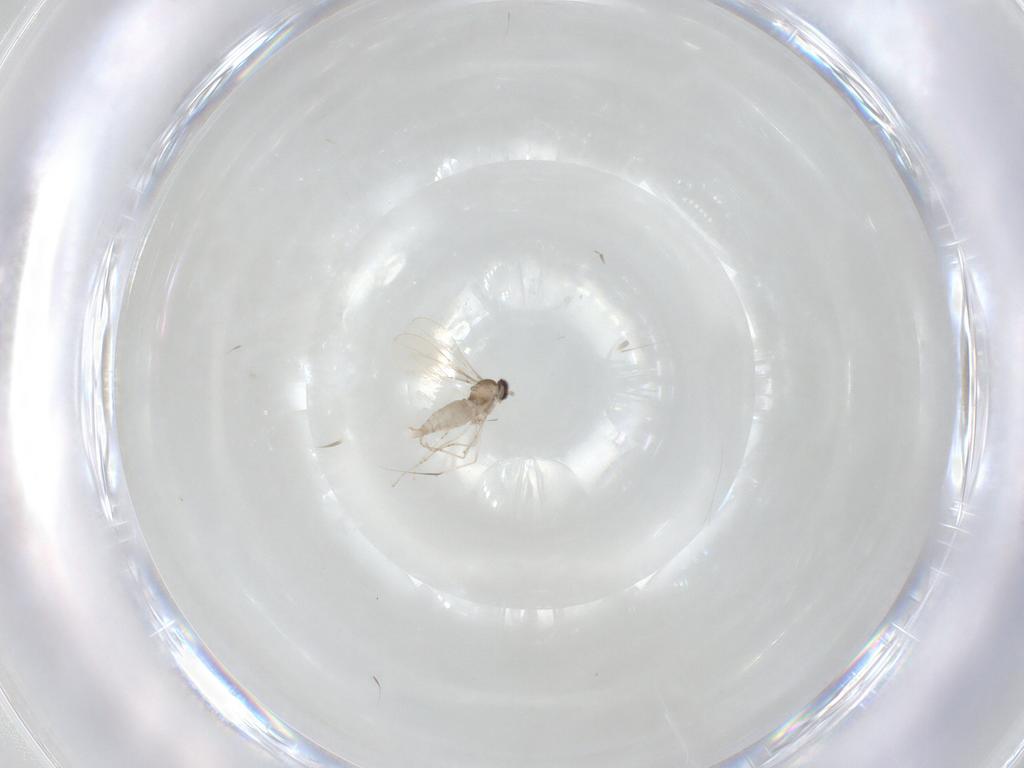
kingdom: Animalia
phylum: Arthropoda
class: Insecta
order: Diptera
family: Cecidomyiidae
